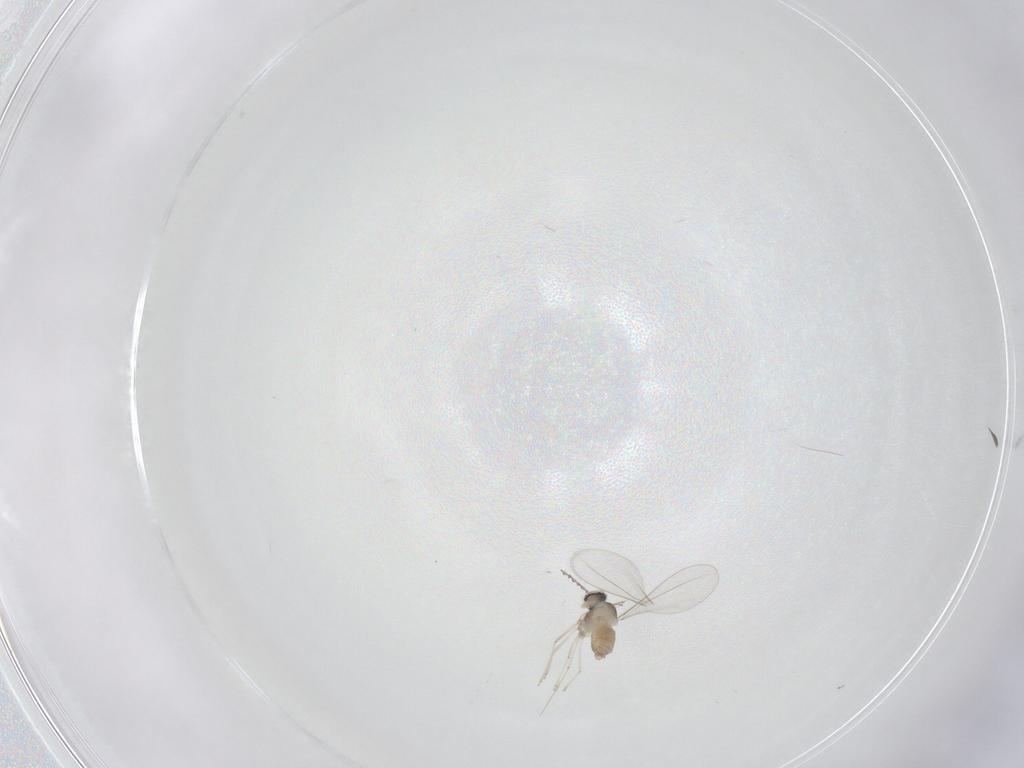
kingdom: Animalia
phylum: Arthropoda
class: Insecta
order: Diptera
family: Cecidomyiidae
